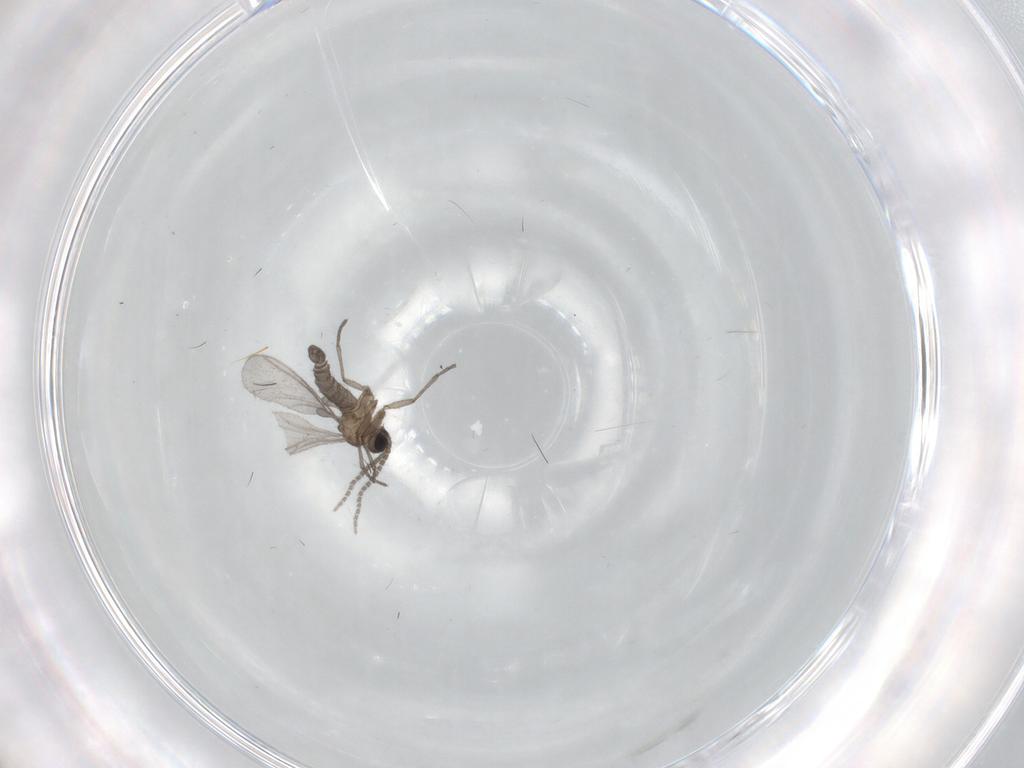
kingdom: Animalia
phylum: Arthropoda
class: Insecta
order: Diptera
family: Sciaridae
